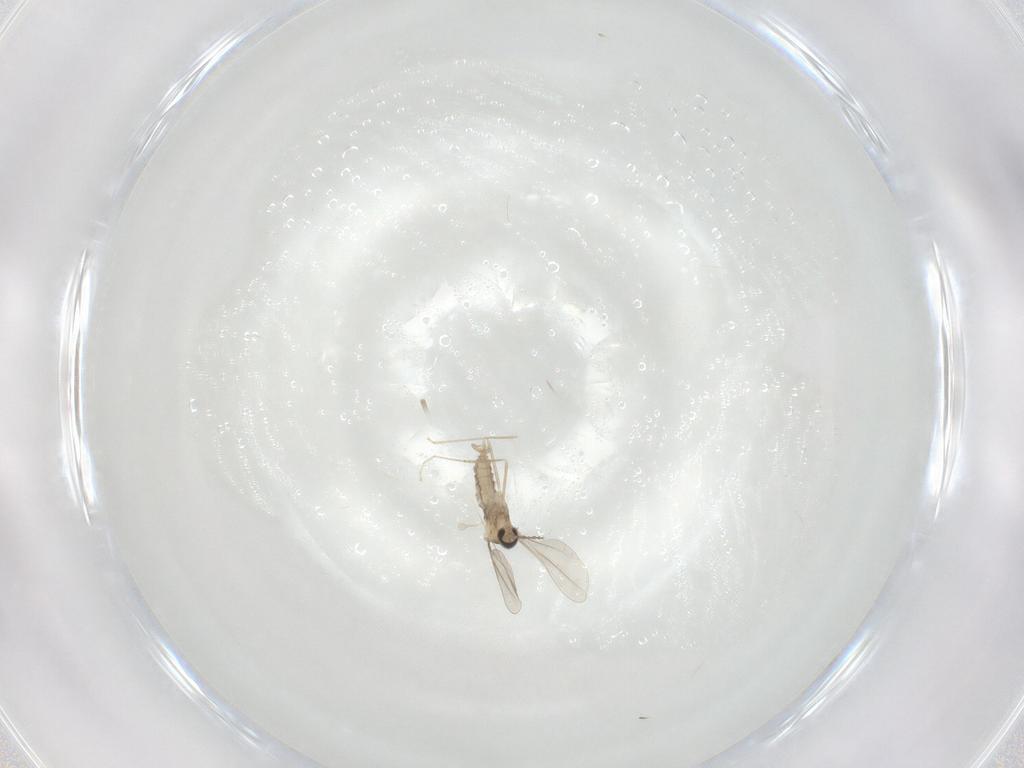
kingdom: Animalia
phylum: Arthropoda
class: Insecta
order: Diptera
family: Cecidomyiidae
